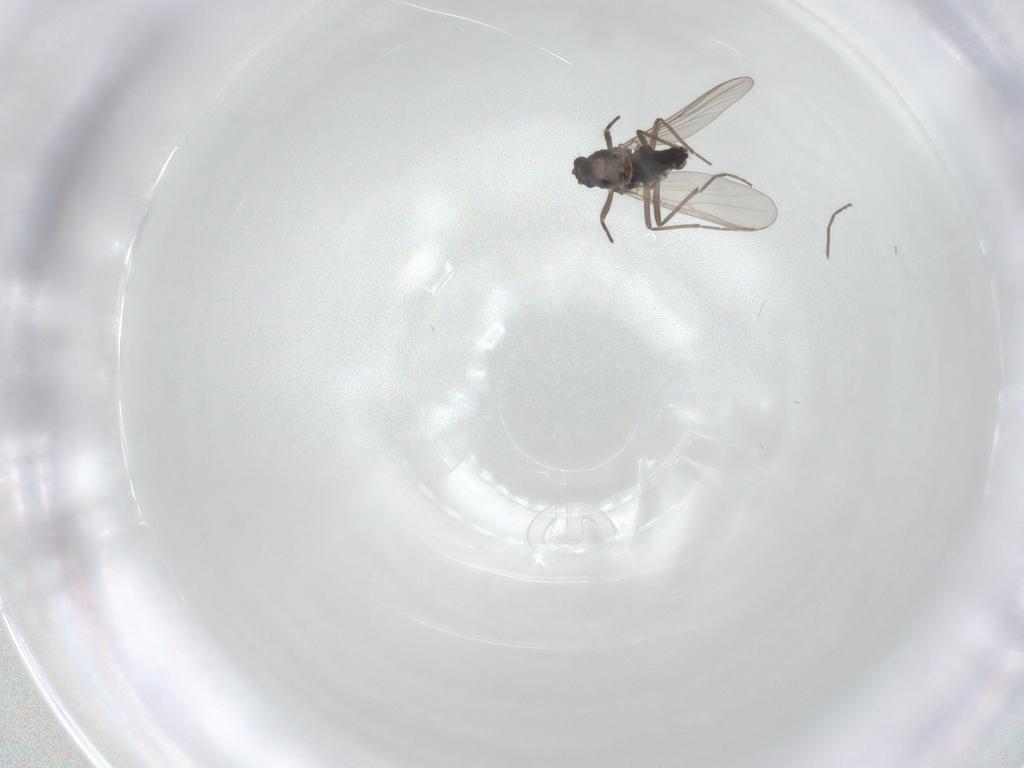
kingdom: Animalia
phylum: Arthropoda
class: Insecta
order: Diptera
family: Chironomidae
